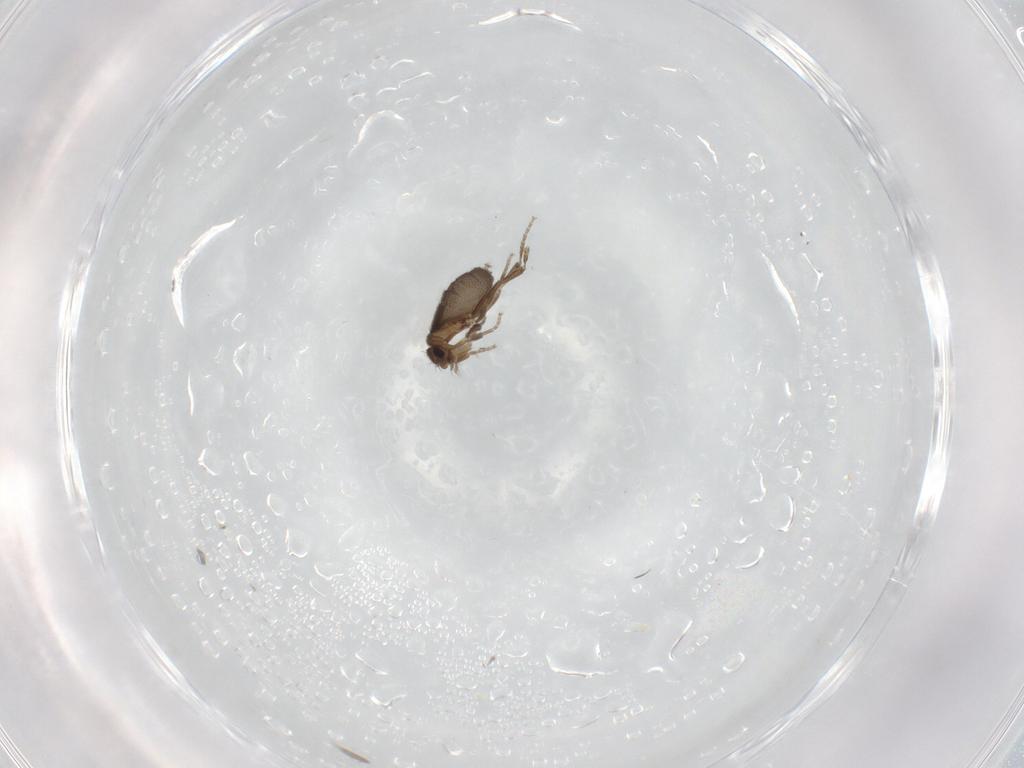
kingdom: Animalia
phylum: Arthropoda
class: Insecta
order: Diptera
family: Phoridae
